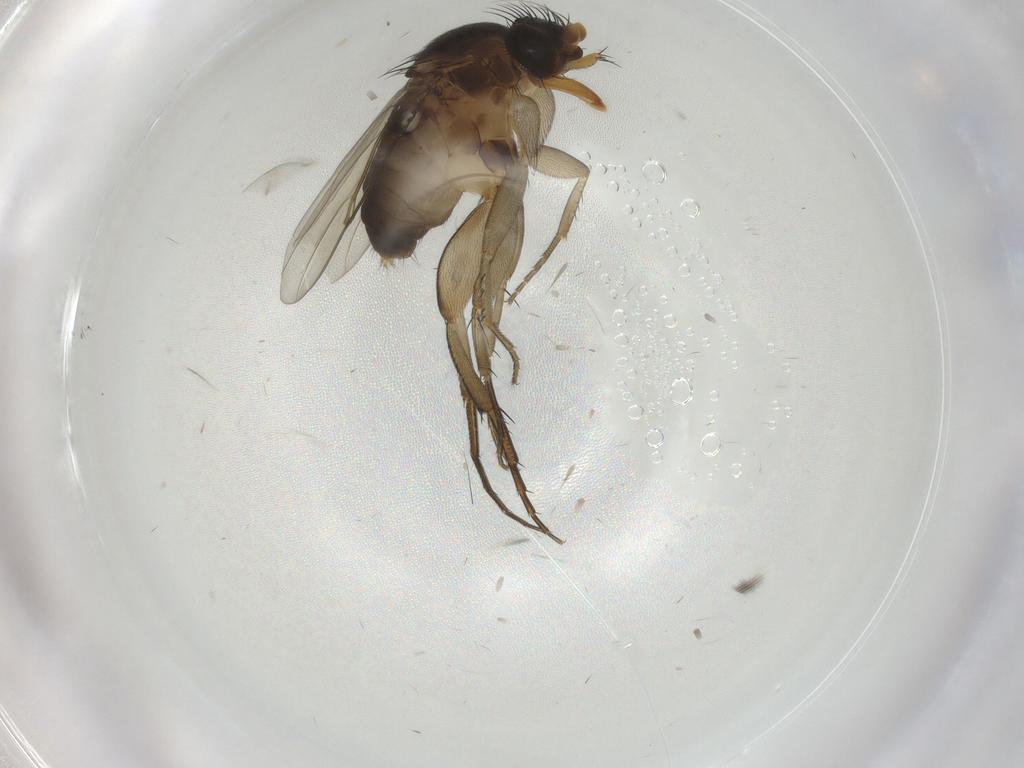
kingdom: Animalia
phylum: Arthropoda
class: Insecta
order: Diptera
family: Phoridae
